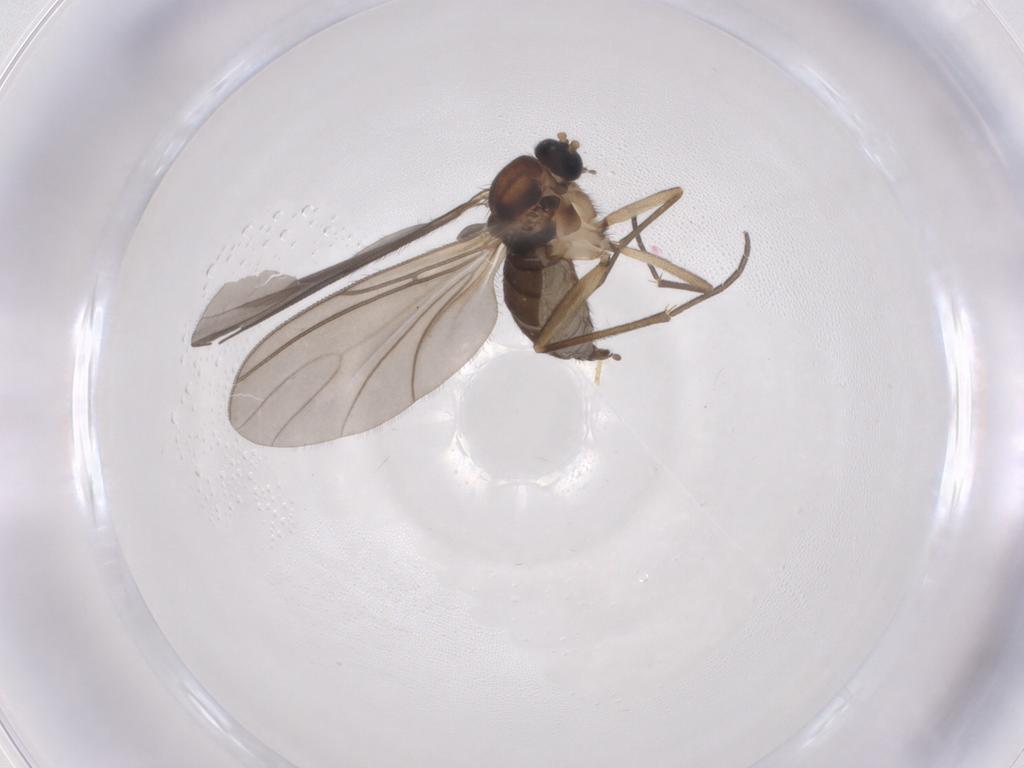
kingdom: Animalia
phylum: Arthropoda
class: Insecta
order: Diptera
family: Sciaridae
